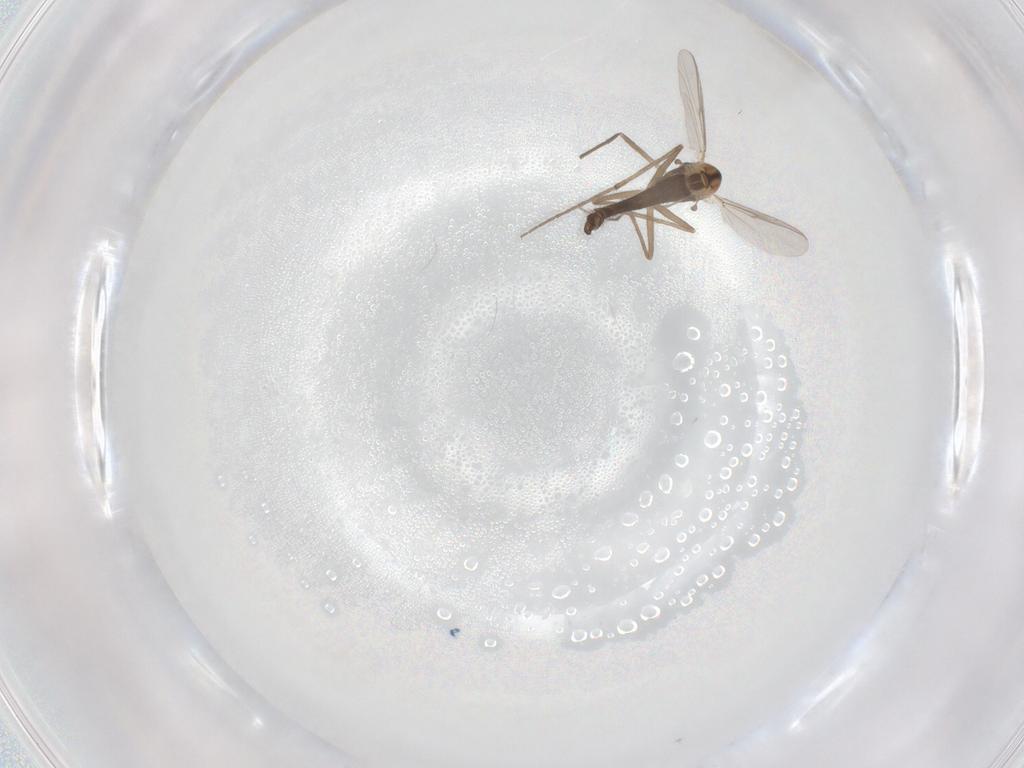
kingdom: Animalia
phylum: Arthropoda
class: Insecta
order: Diptera
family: Chironomidae
